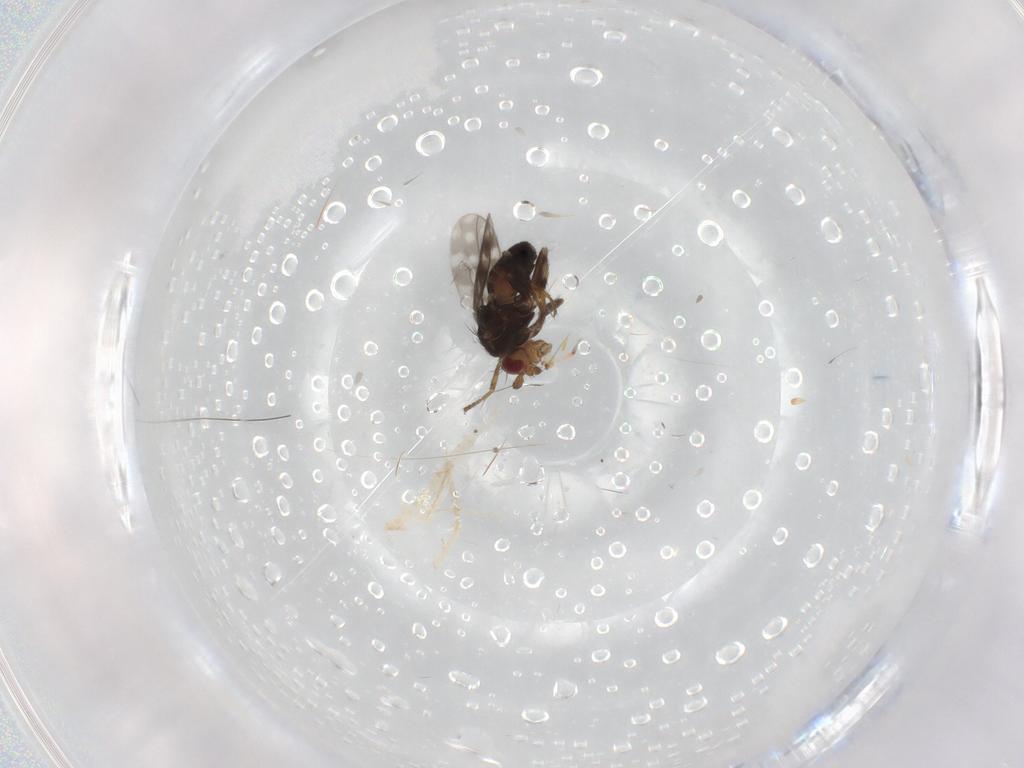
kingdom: Animalia
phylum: Arthropoda
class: Insecta
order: Diptera
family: Sphaeroceridae
